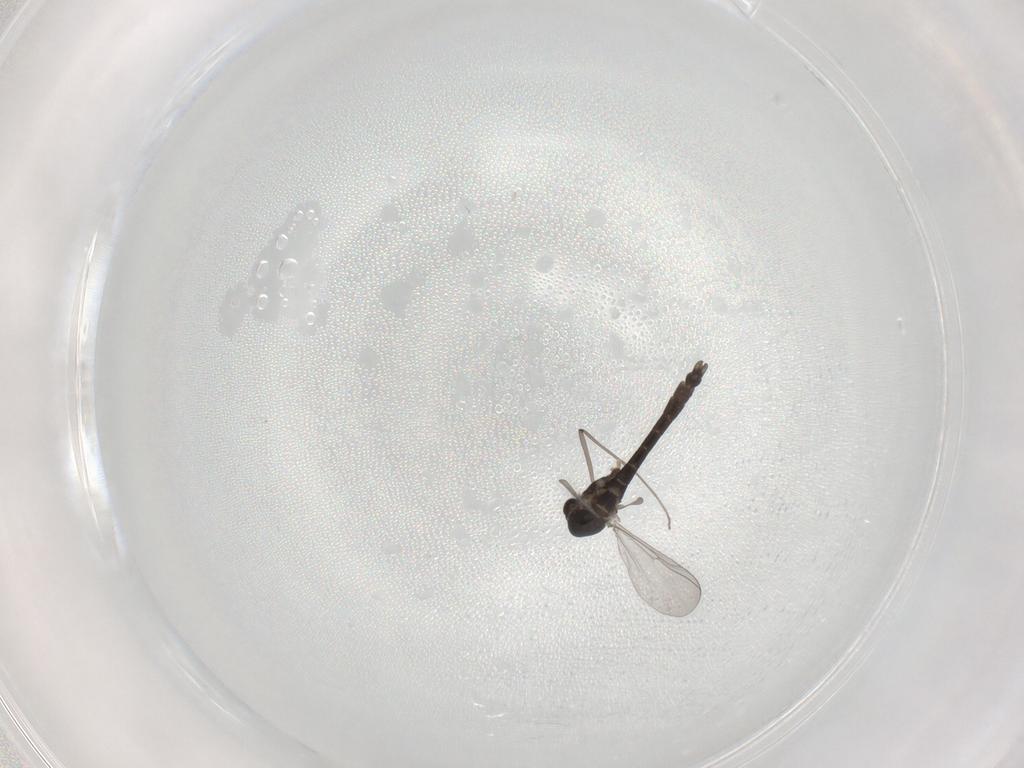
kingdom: Animalia
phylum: Arthropoda
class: Insecta
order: Diptera
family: Chironomidae
